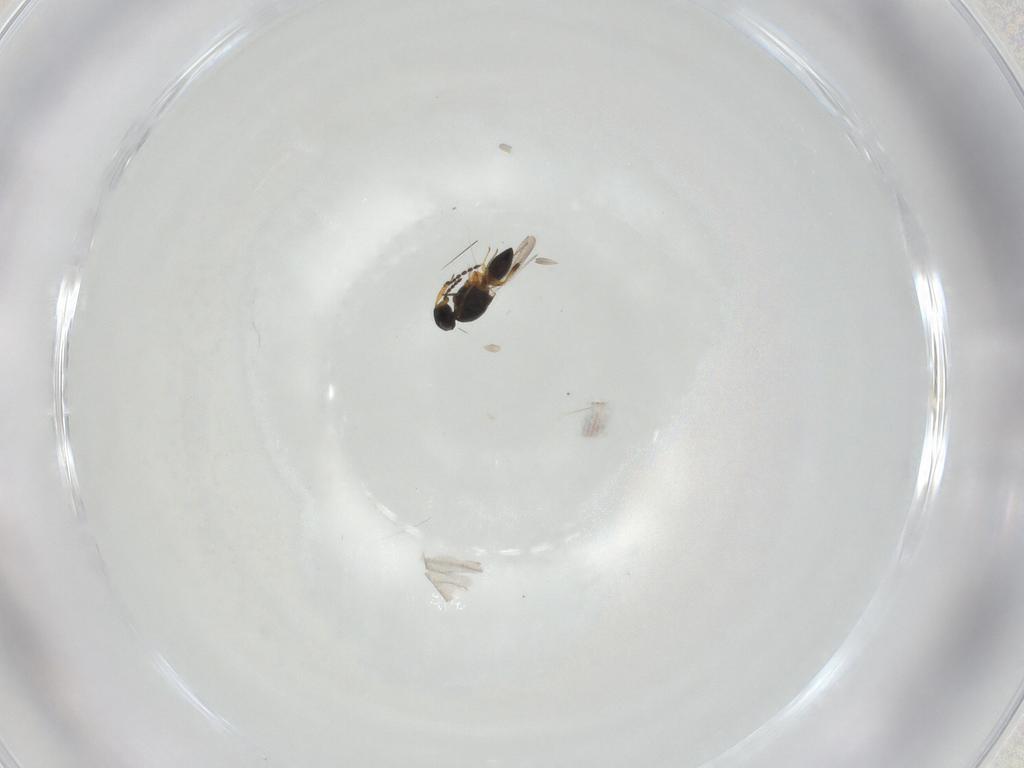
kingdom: Animalia
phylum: Arthropoda
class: Insecta
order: Hymenoptera
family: Platygastridae
